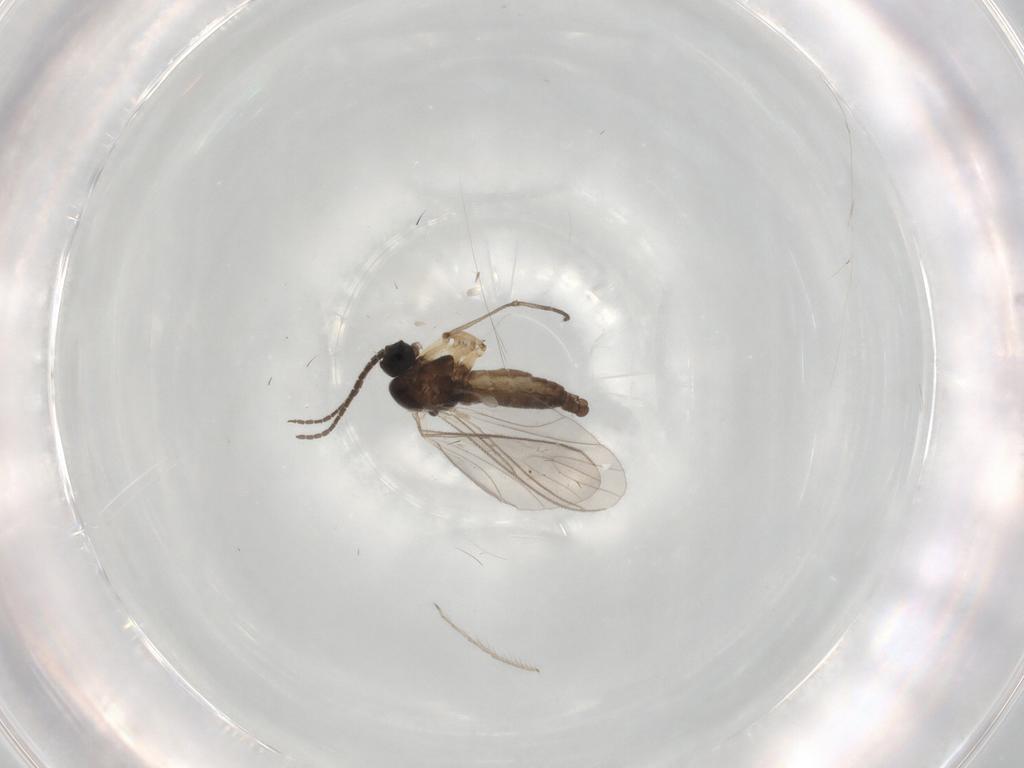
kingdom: Animalia
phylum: Arthropoda
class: Insecta
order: Diptera
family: Sciaridae
